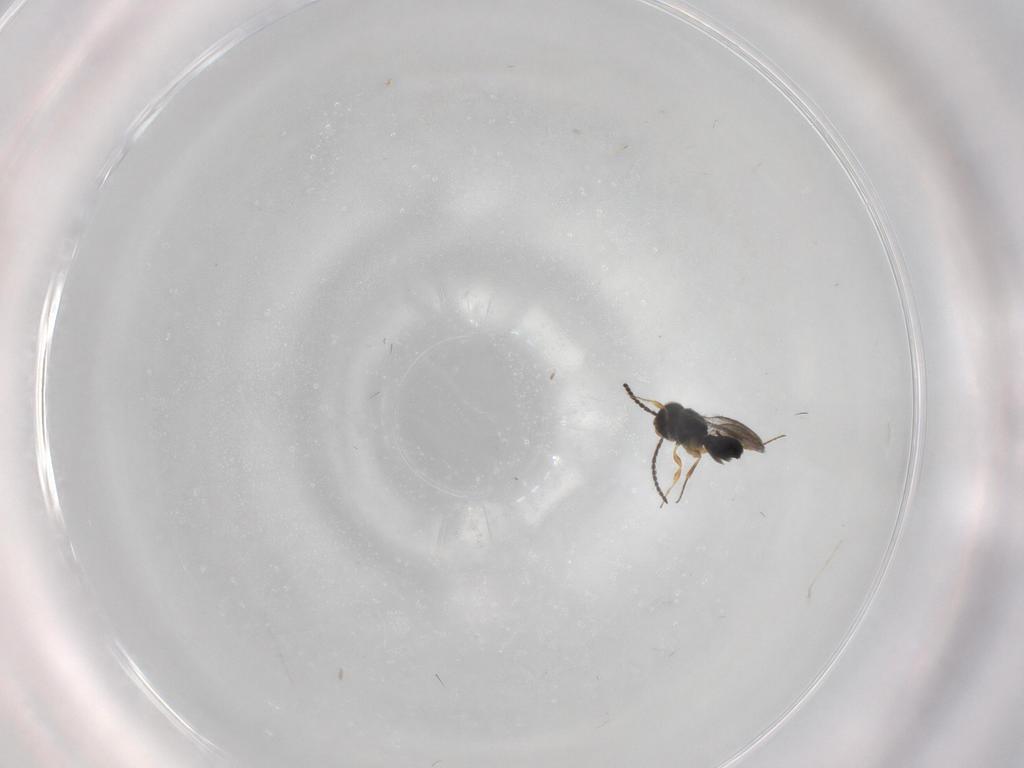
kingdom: Animalia
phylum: Arthropoda
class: Insecta
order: Hymenoptera
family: Scelionidae
